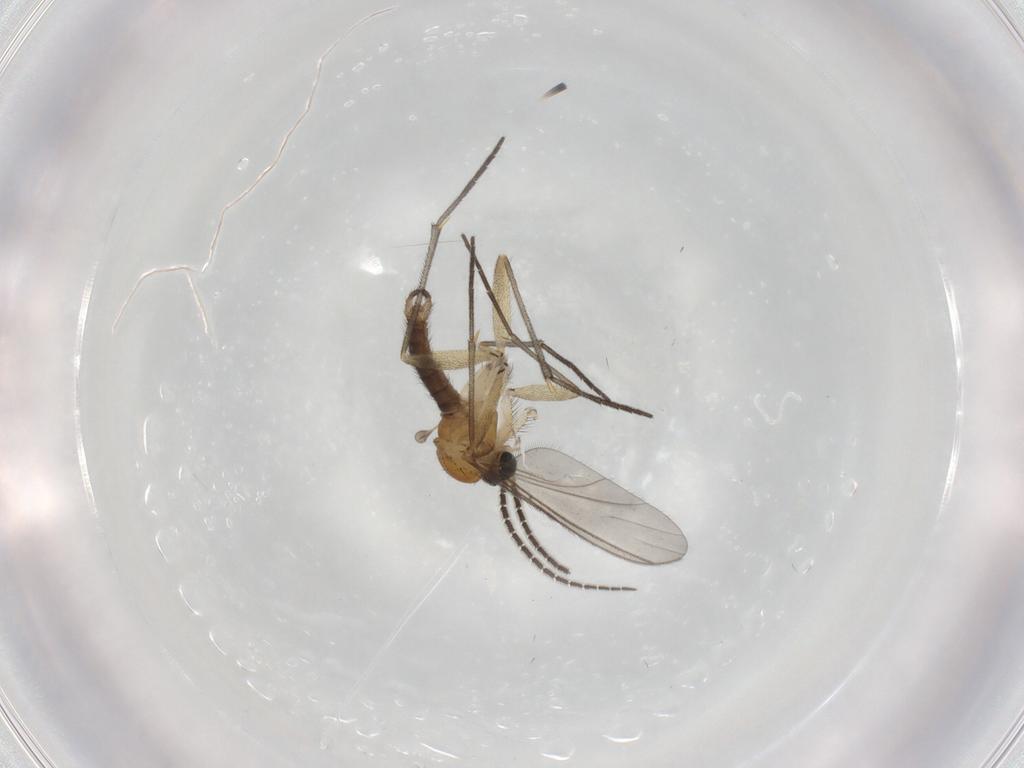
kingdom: Animalia
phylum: Arthropoda
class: Insecta
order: Diptera
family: Sciaridae
